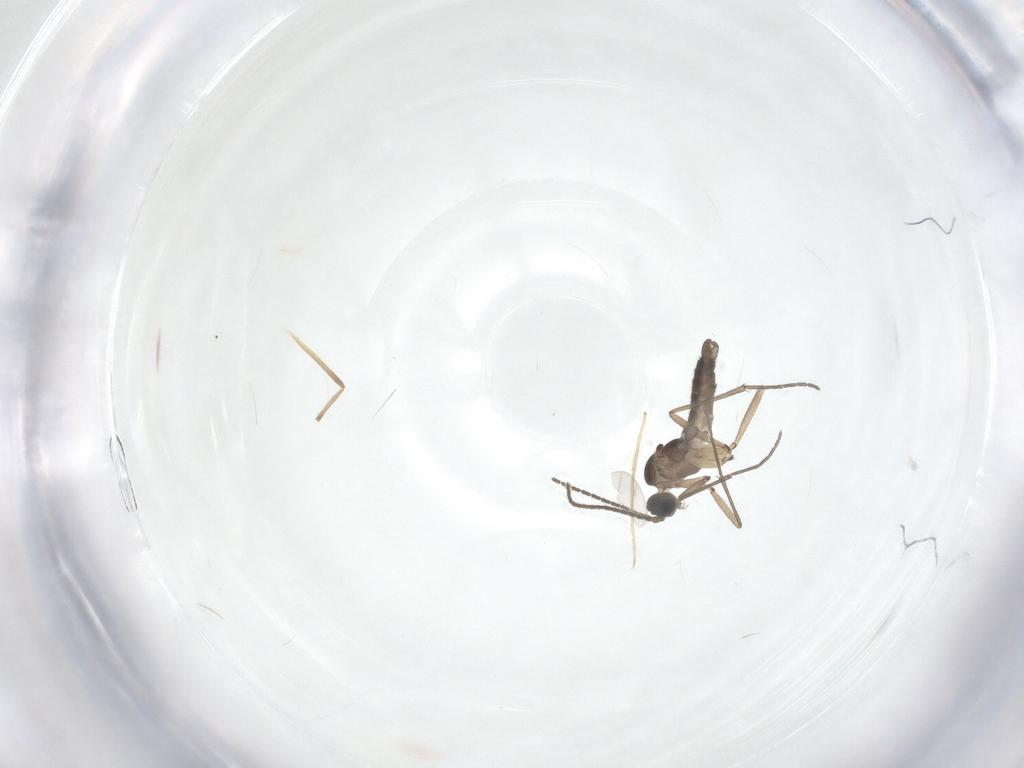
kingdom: Animalia
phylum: Arthropoda
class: Insecta
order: Diptera
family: Sciaridae
